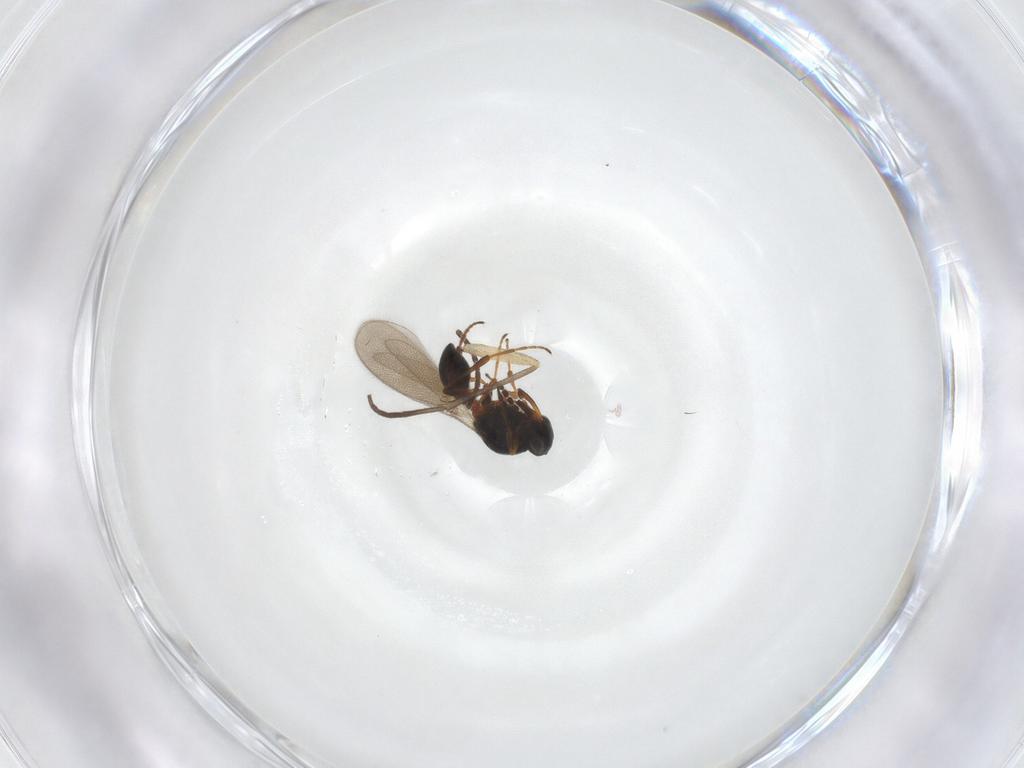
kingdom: Animalia
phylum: Arthropoda
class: Insecta
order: Hymenoptera
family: Platygastridae
